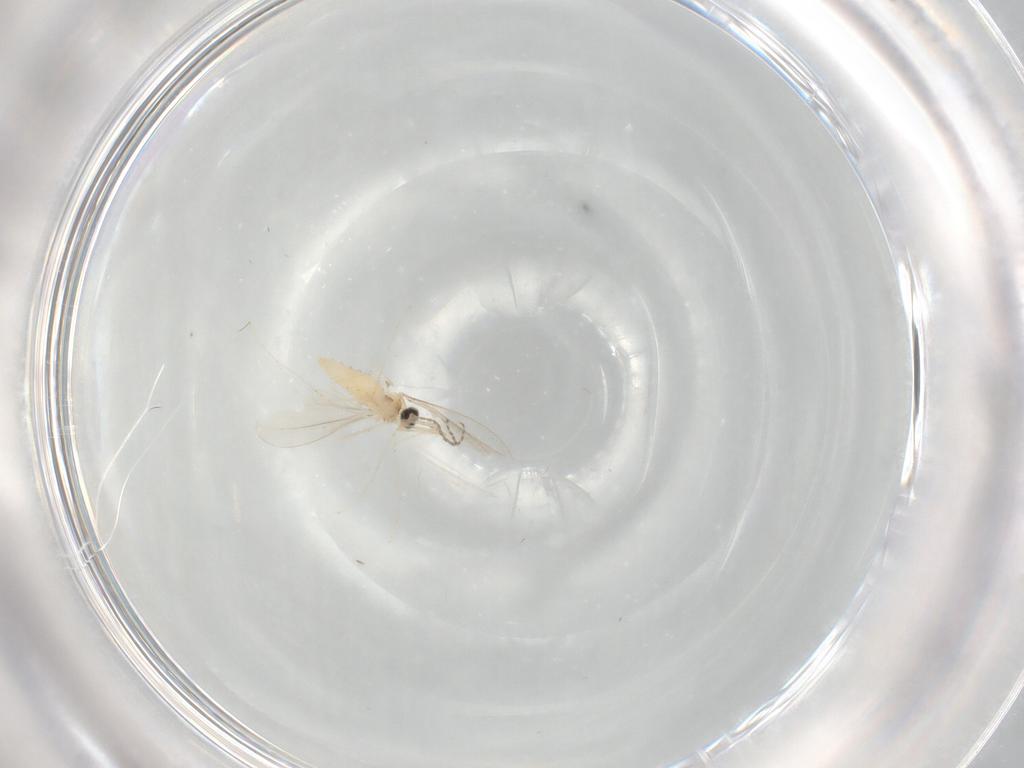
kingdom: Animalia
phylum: Arthropoda
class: Insecta
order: Diptera
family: Cecidomyiidae
